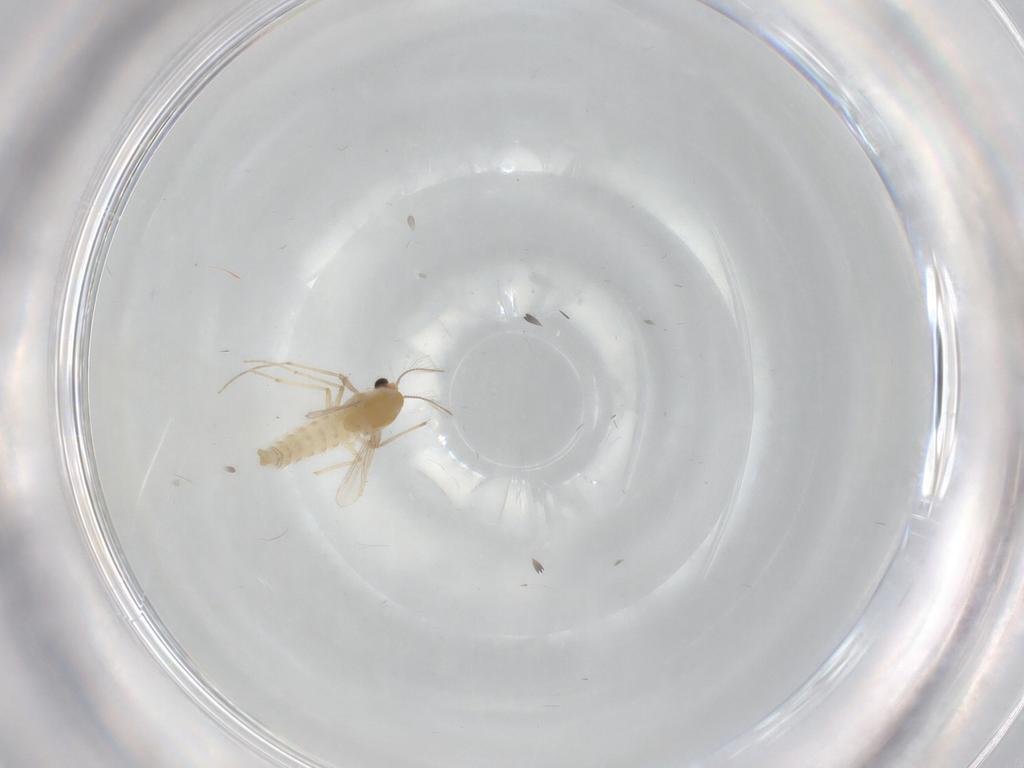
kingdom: Animalia
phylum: Arthropoda
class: Insecta
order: Diptera
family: Chironomidae
